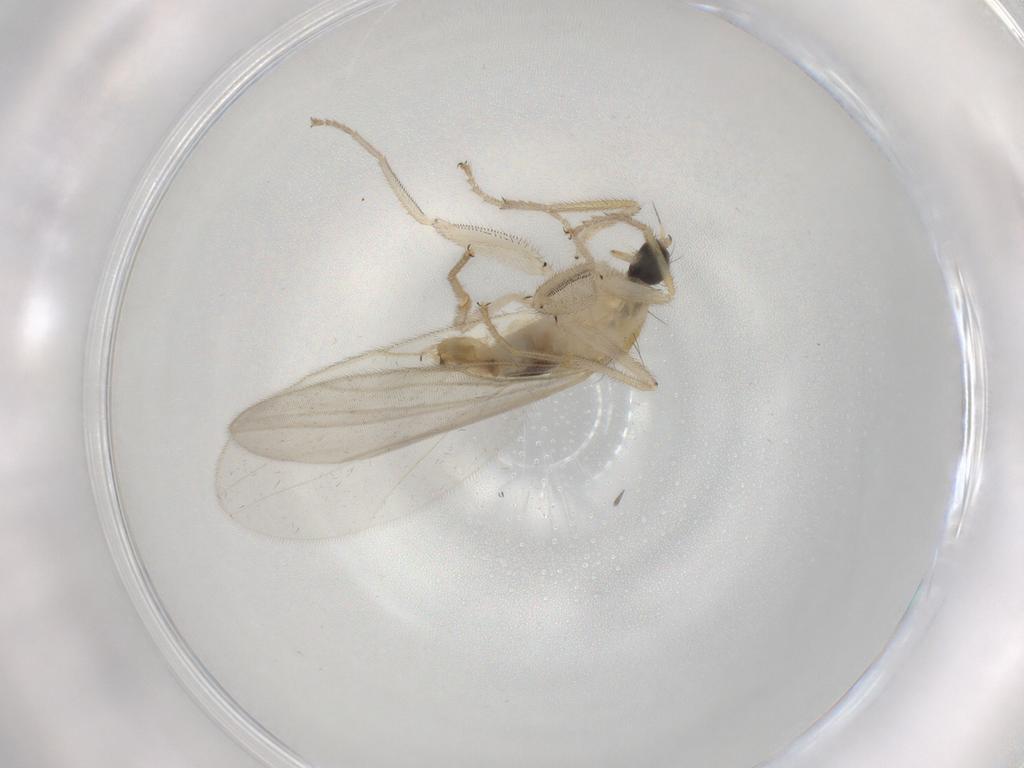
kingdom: Animalia
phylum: Arthropoda
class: Insecta
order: Diptera
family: Hybotidae
